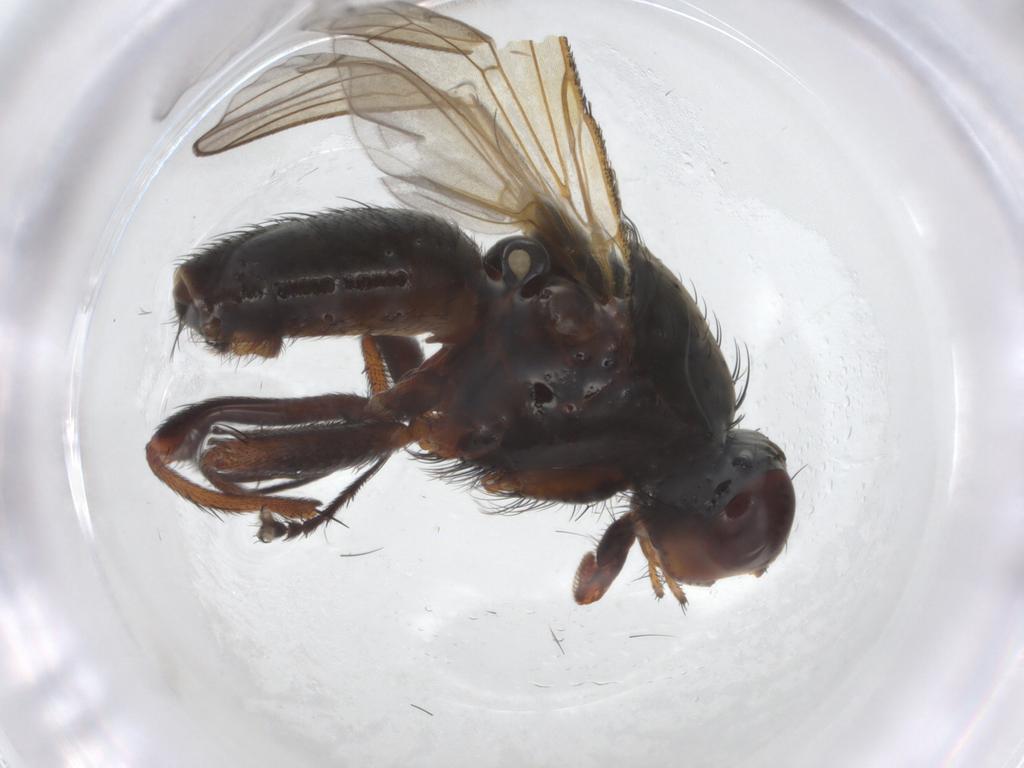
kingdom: Animalia
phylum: Arthropoda
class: Insecta
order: Diptera
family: Anthomyiidae
